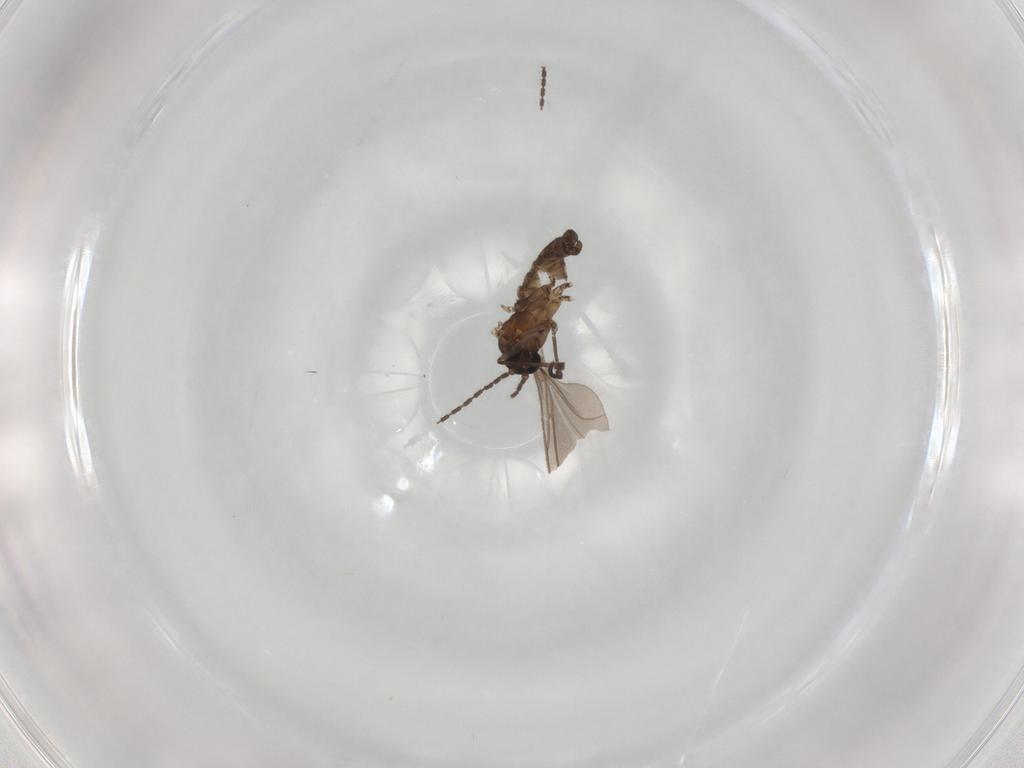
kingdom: Animalia
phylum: Arthropoda
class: Insecta
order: Diptera
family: Sciaridae
